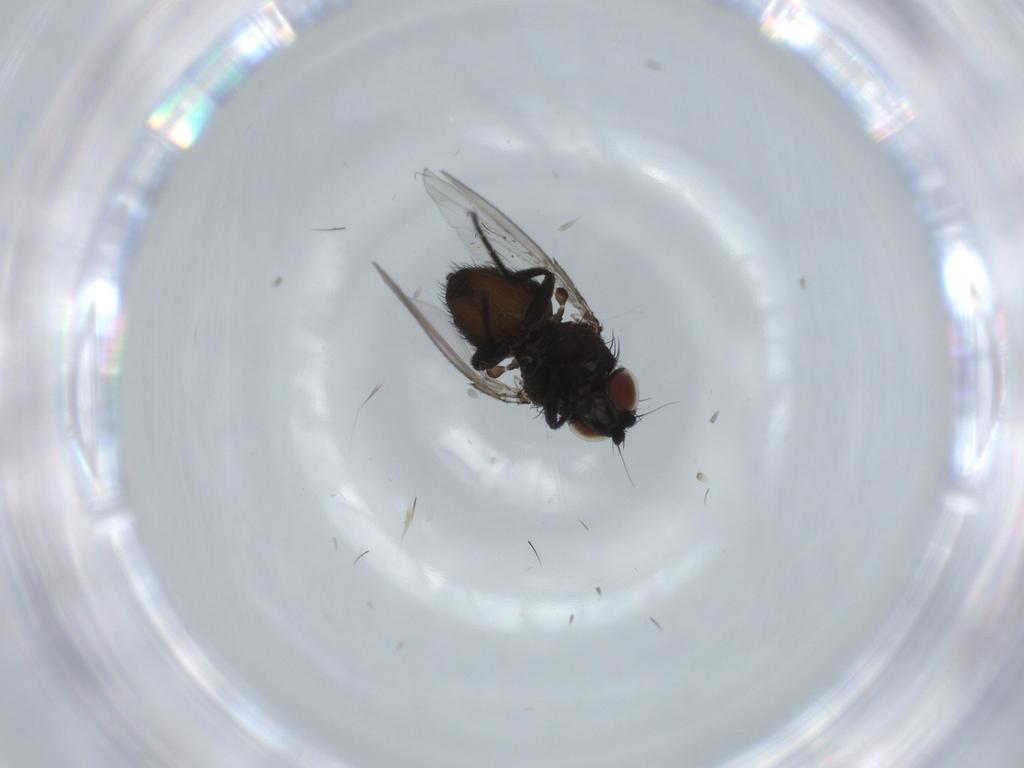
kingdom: Animalia
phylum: Arthropoda
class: Insecta
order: Diptera
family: Milichiidae
